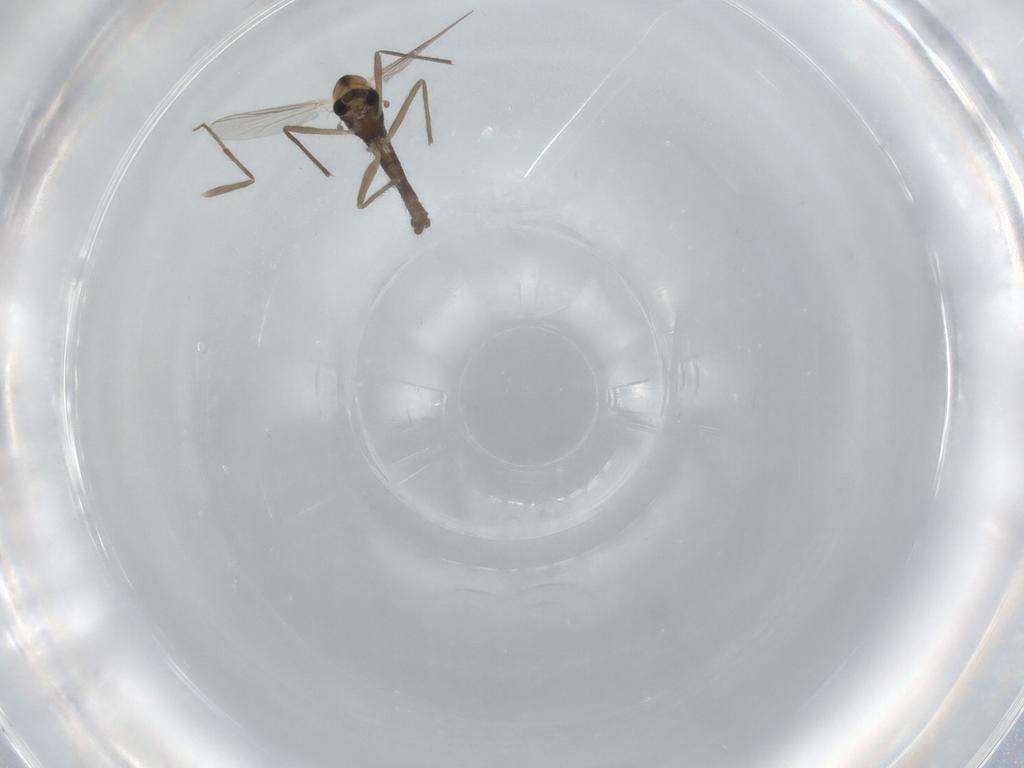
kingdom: Animalia
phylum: Arthropoda
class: Insecta
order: Diptera
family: Chironomidae
